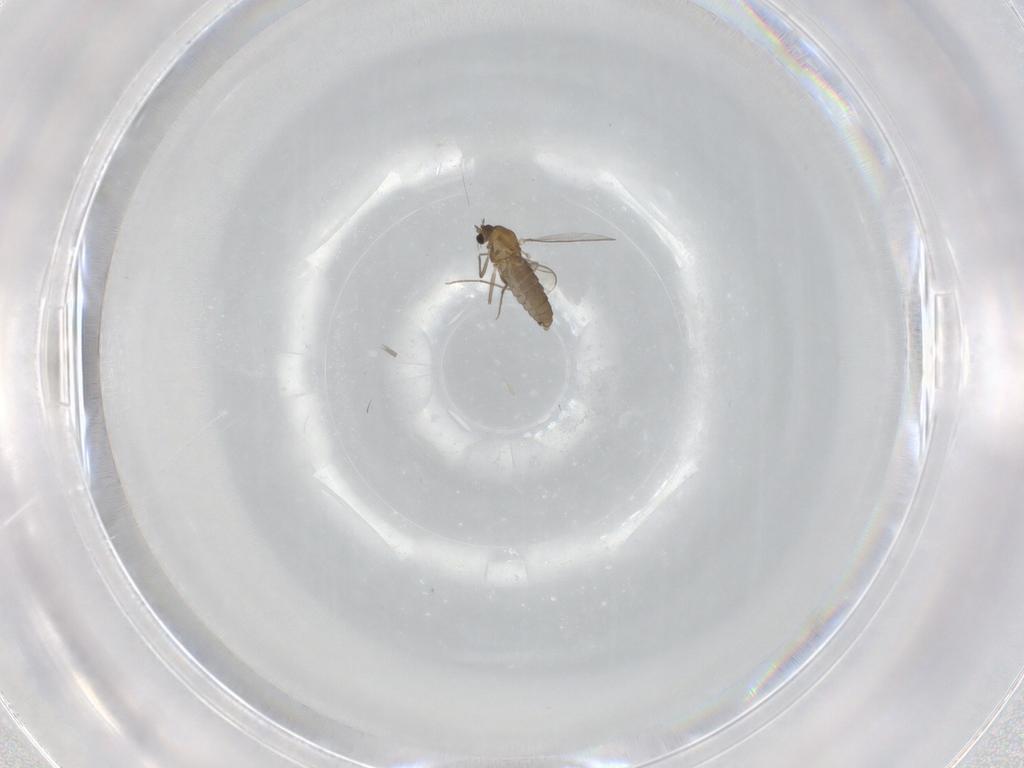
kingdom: Animalia
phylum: Arthropoda
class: Insecta
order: Diptera
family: Chironomidae
